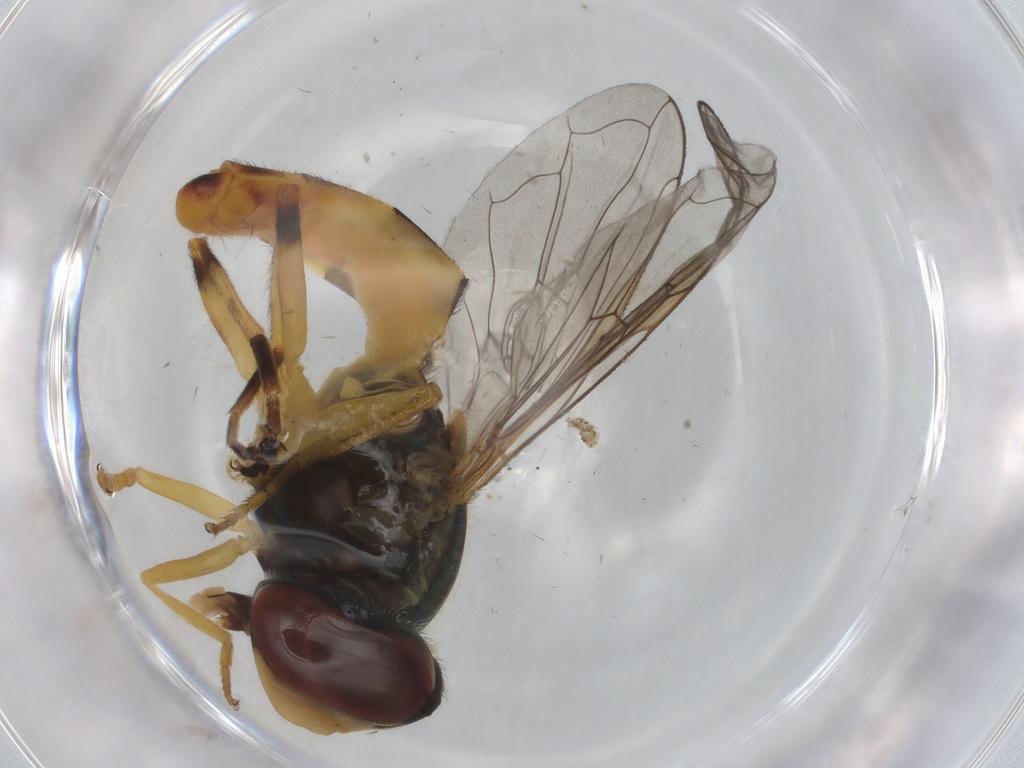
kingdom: Animalia
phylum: Arthropoda
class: Insecta
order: Diptera
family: Syrphidae
